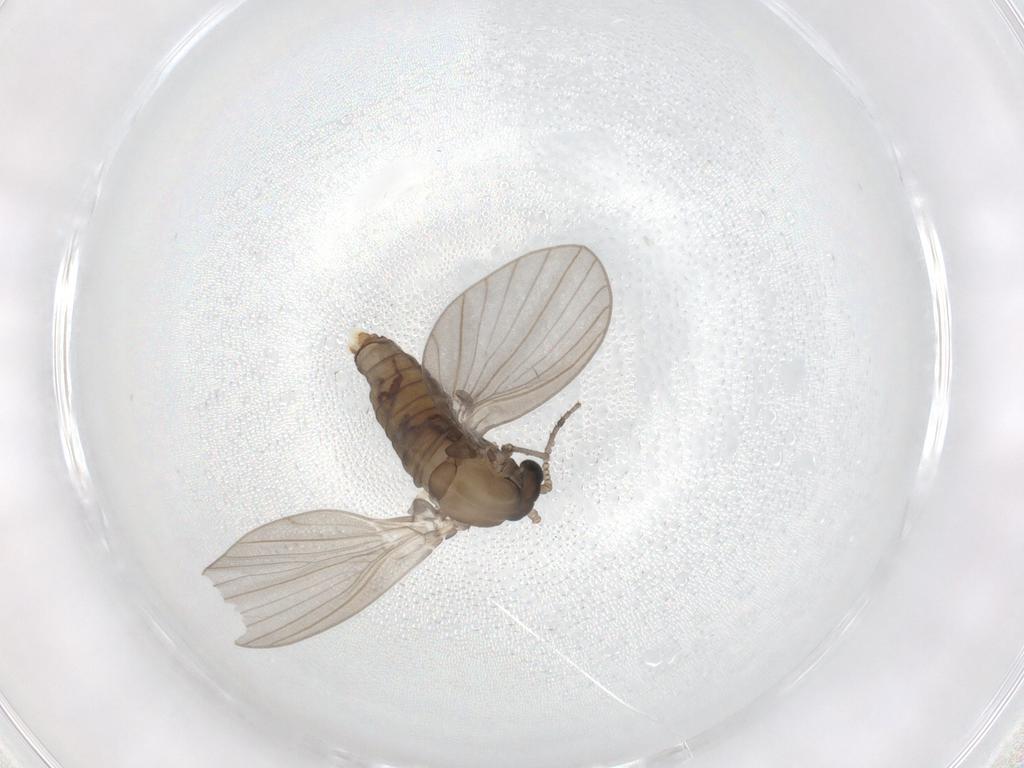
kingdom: Animalia
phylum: Arthropoda
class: Insecta
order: Diptera
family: Psychodidae
